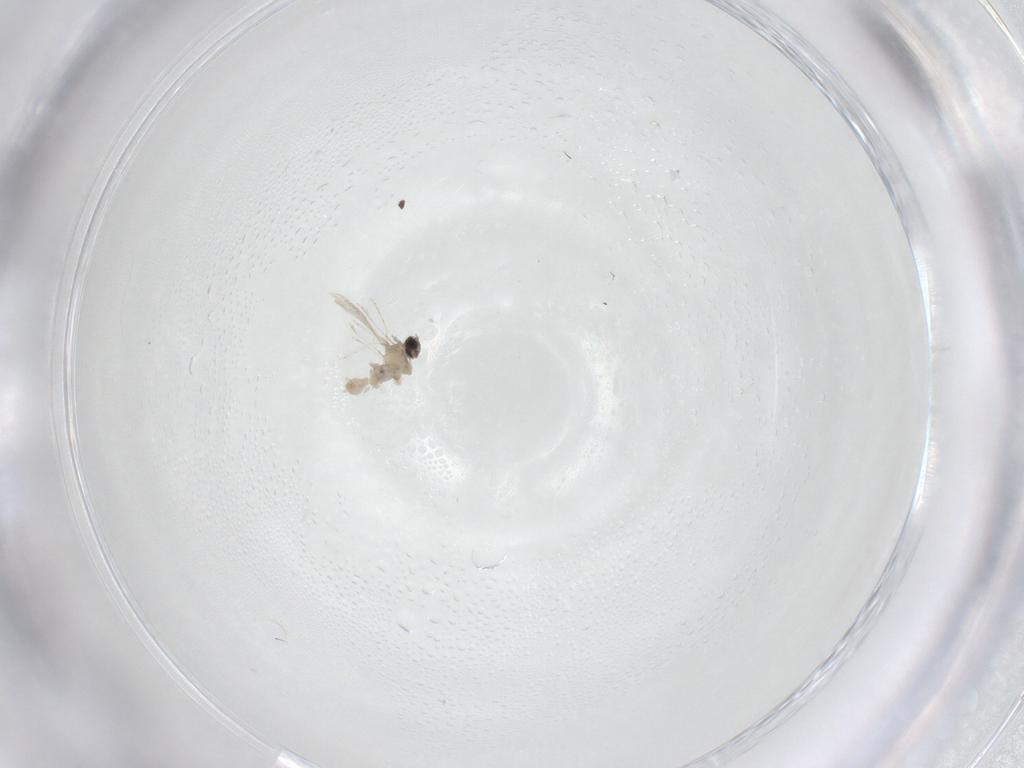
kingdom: Animalia
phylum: Arthropoda
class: Insecta
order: Diptera
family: Cecidomyiidae
